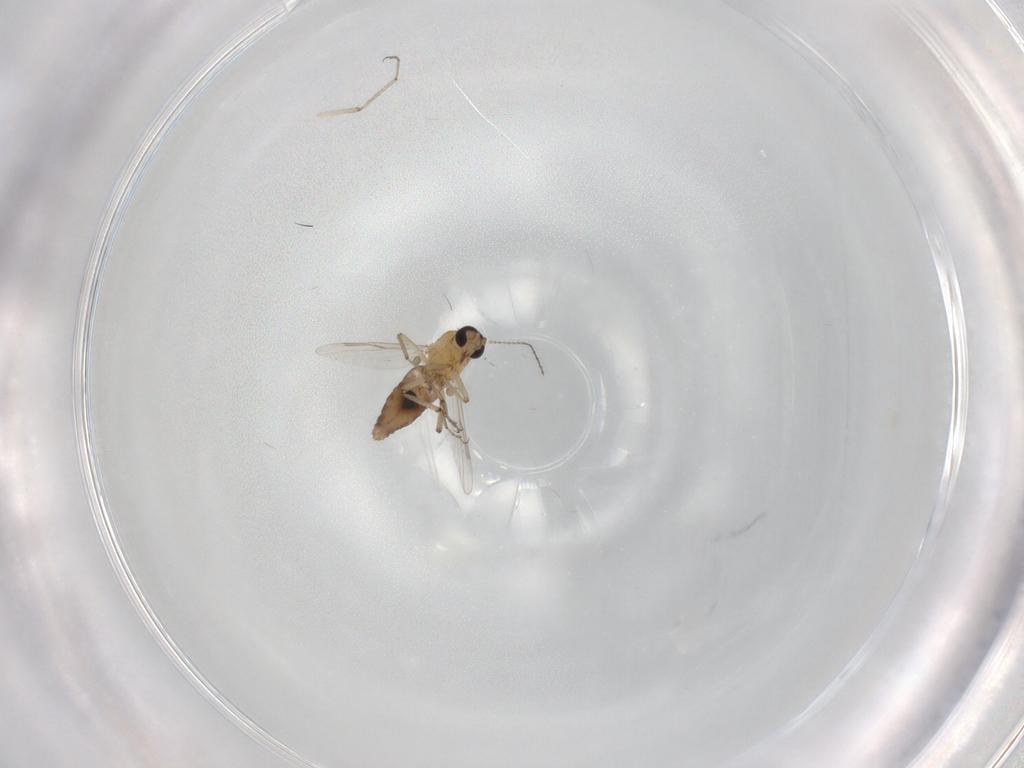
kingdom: Animalia
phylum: Arthropoda
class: Insecta
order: Diptera
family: Ceratopogonidae
